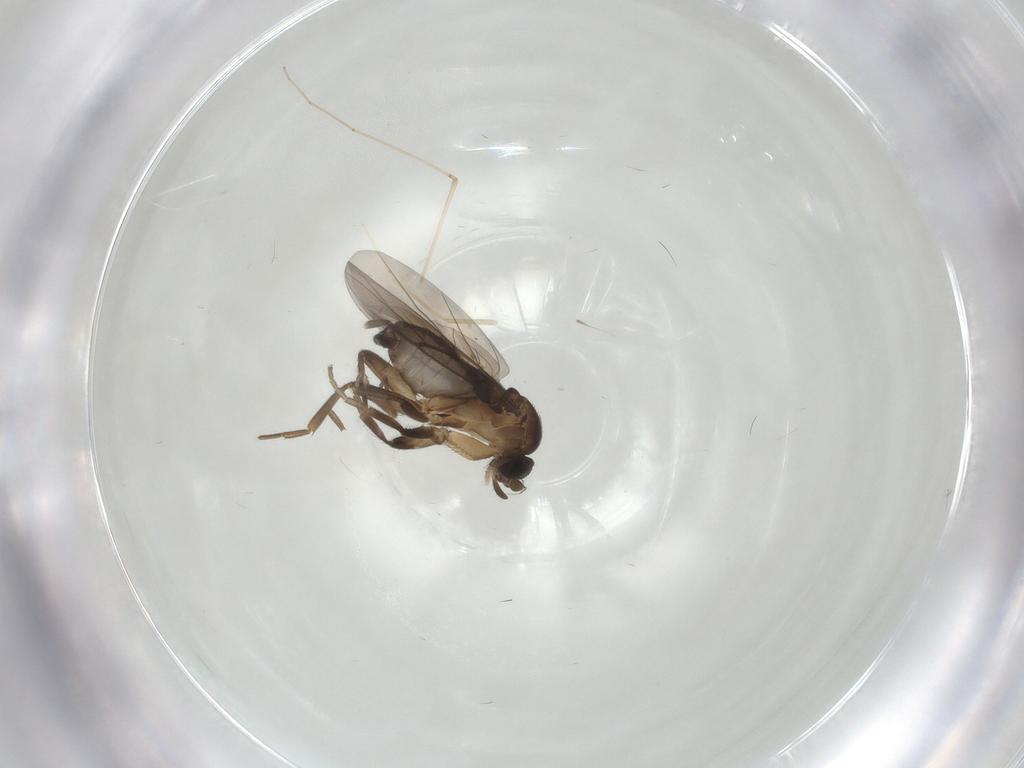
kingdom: Animalia
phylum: Arthropoda
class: Insecta
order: Diptera
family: Phoridae
